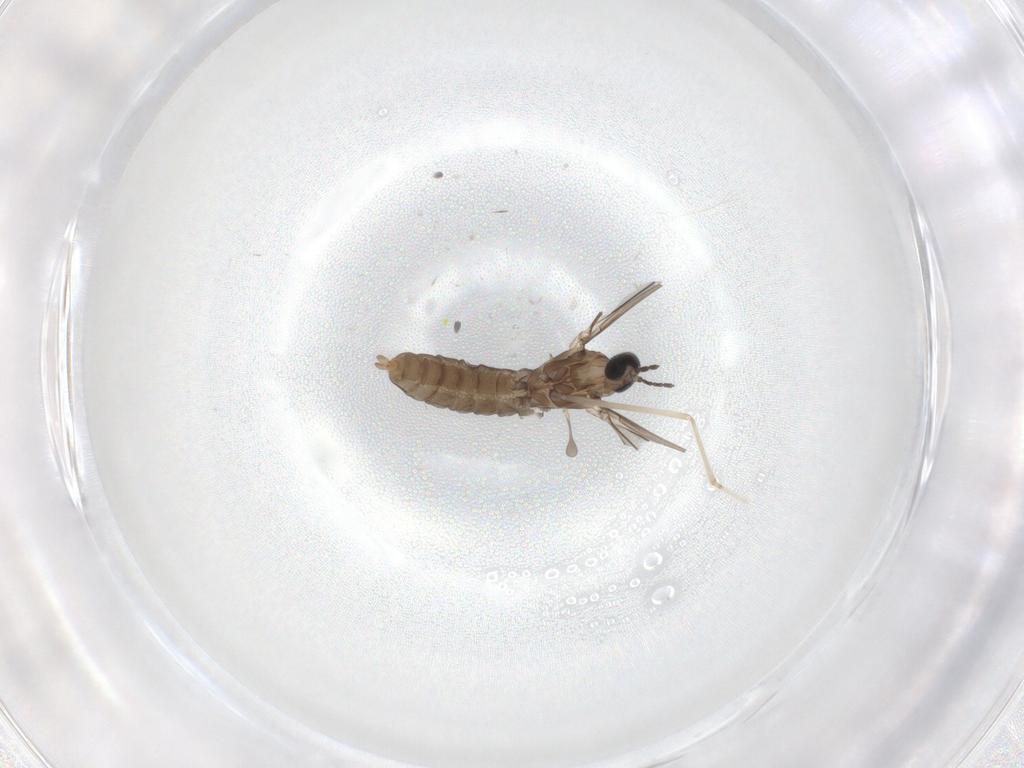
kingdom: Animalia
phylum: Arthropoda
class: Insecta
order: Diptera
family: Cecidomyiidae
